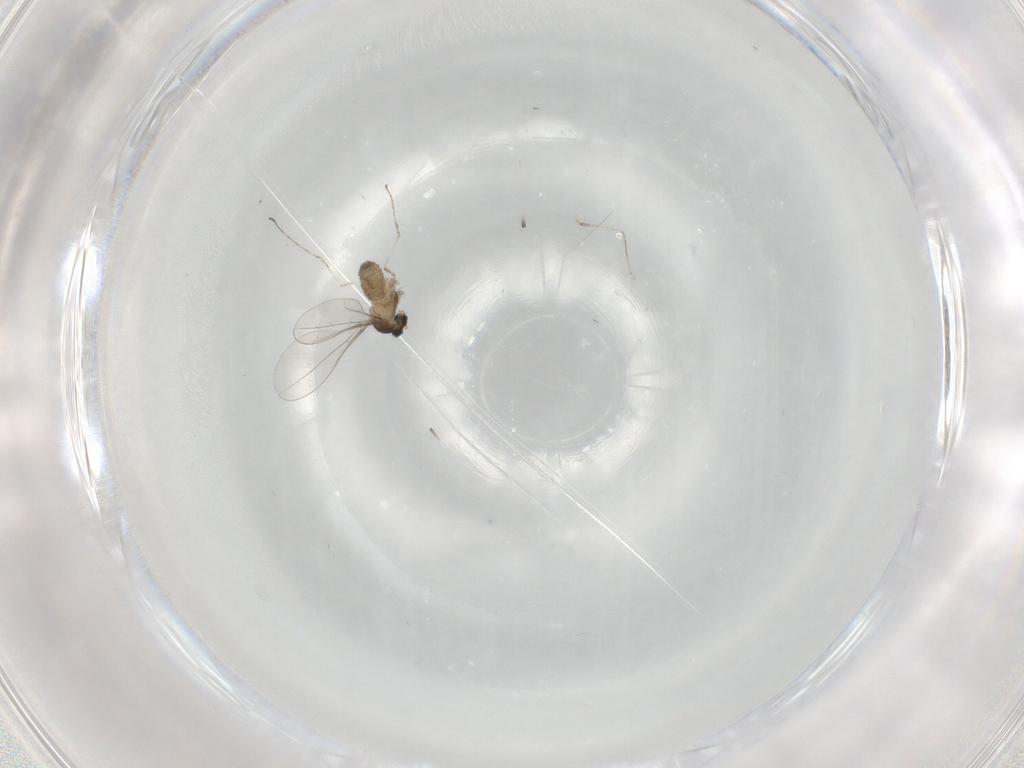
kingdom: Animalia
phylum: Arthropoda
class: Insecta
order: Diptera
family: Cecidomyiidae
